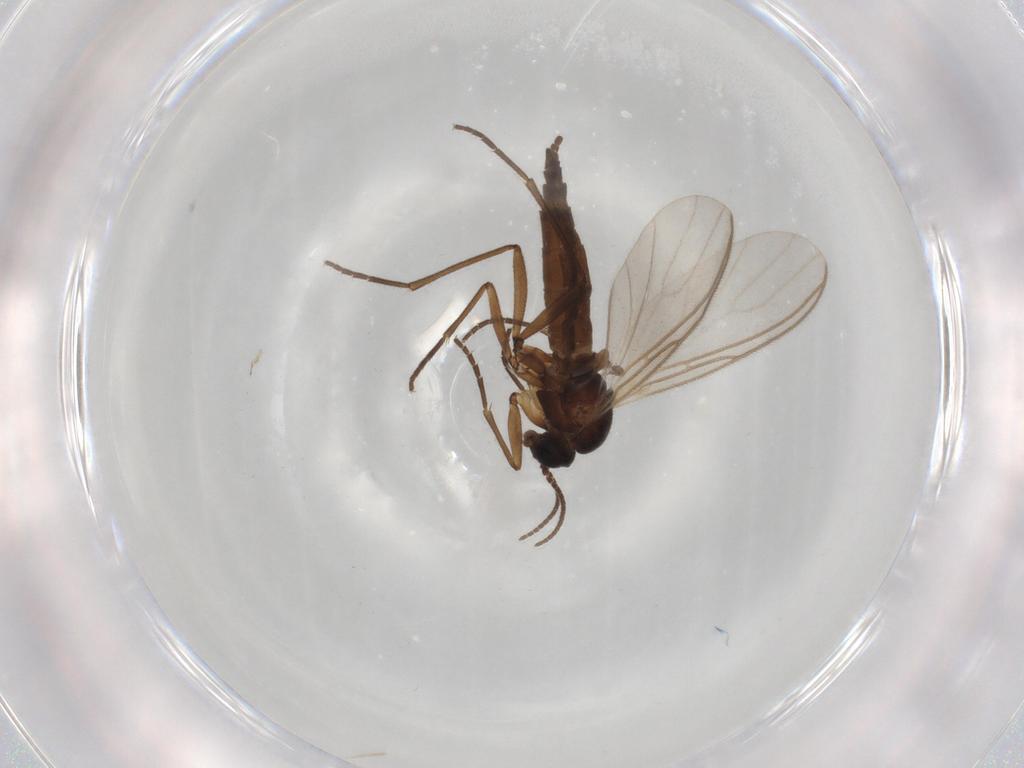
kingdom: Animalia
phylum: Arthropoda
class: Insecta
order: Diptera
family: Sciaridae
